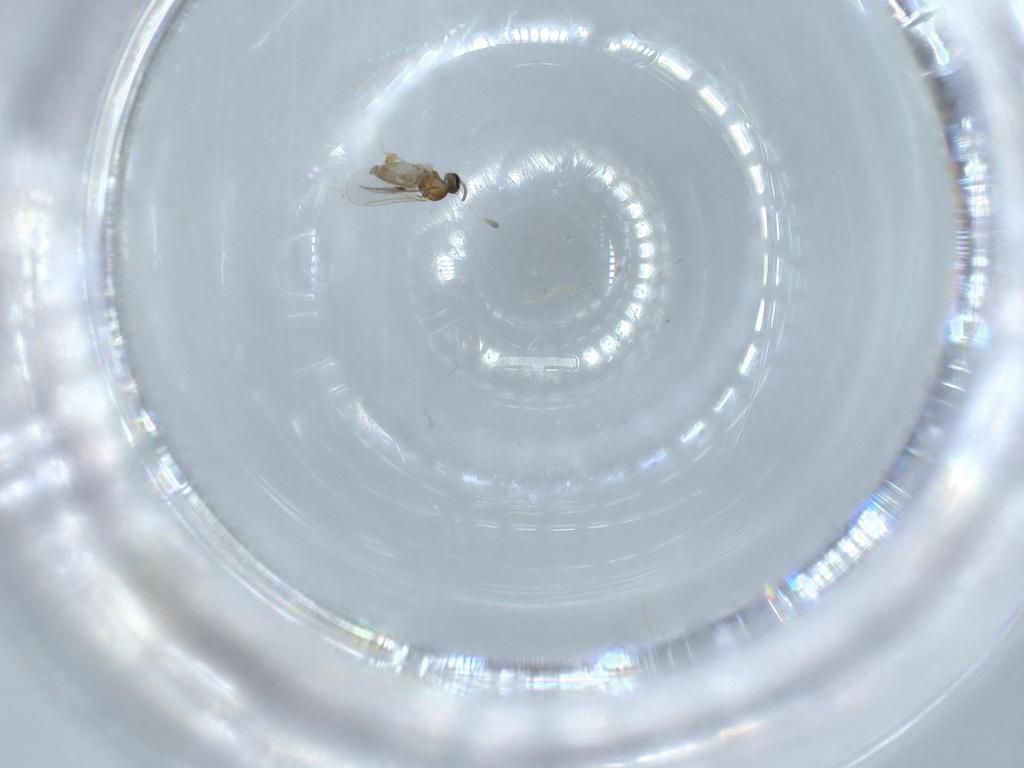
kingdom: Animalia
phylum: Arthropoda
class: Insecta
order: Diptera
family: Cecidomyiidae
